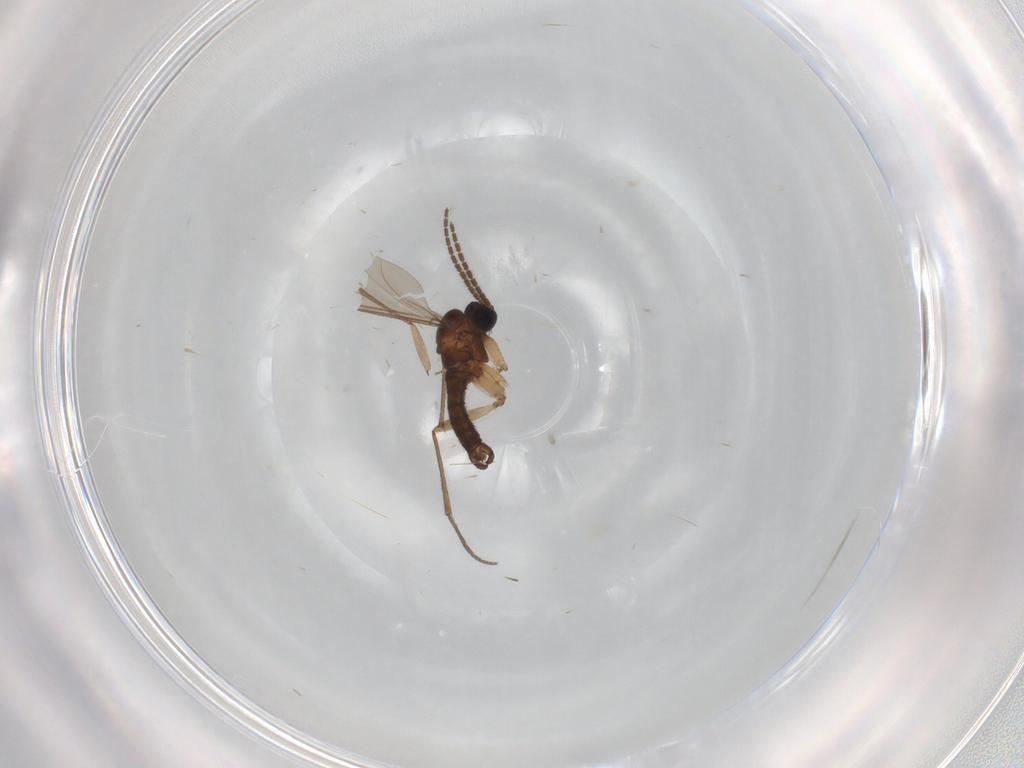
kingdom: Animalia
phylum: Arthropoda
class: Insecta
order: Diptera
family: Sciaridae
